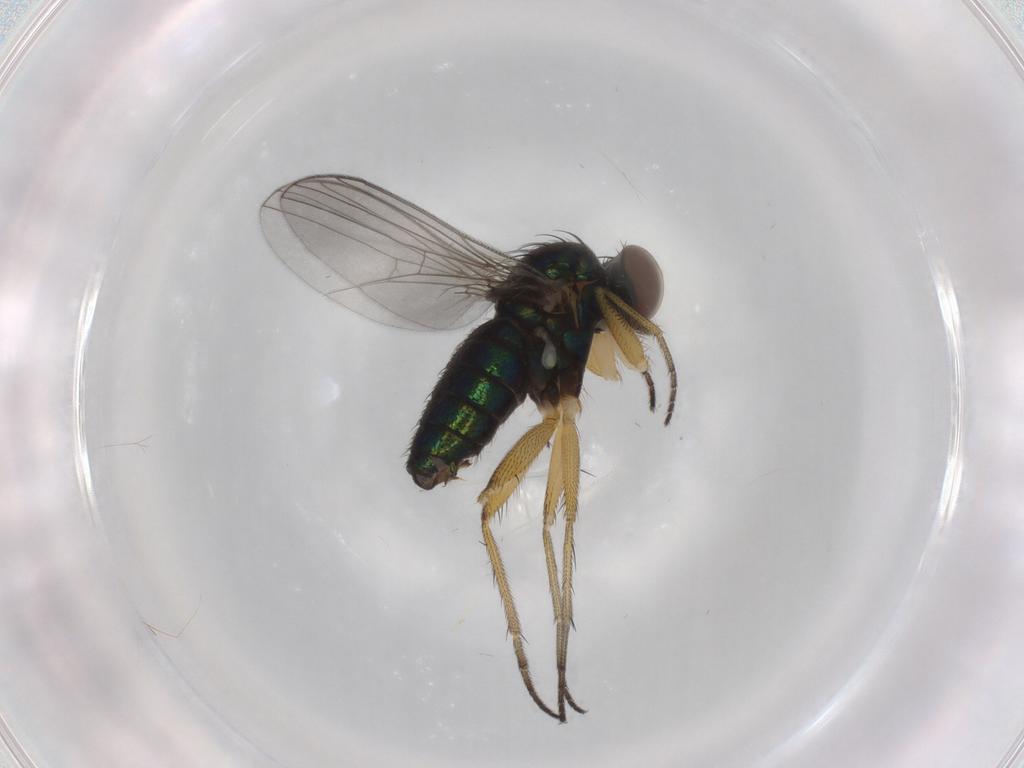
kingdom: Animalia
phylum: Arthropoda
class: Insecta
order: Diptera
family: Dolichopodidae
